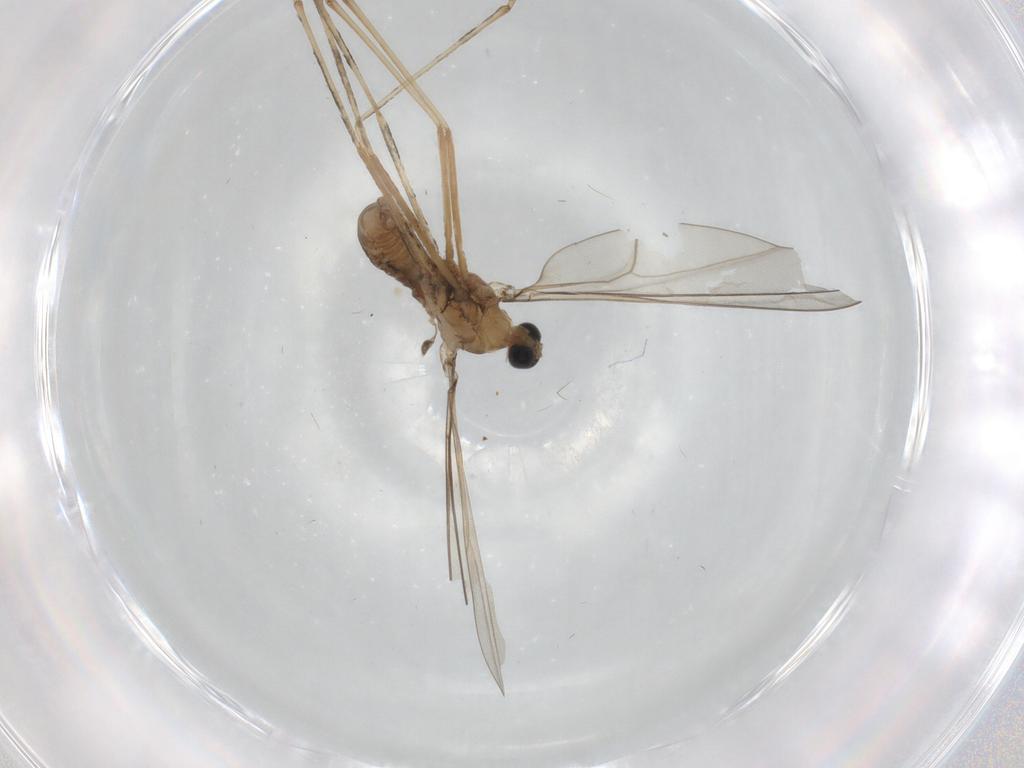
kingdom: Animalia
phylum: Arthropoda
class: Insecta
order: Diptera
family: Cecidomyiidae
